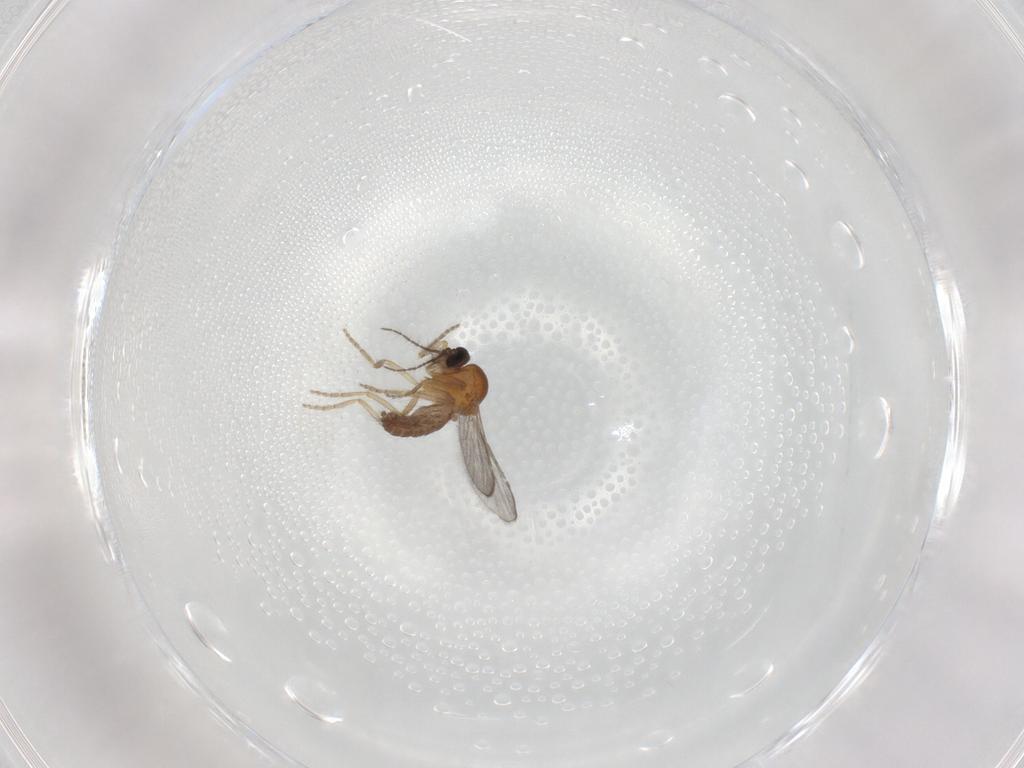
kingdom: Animalia
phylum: Arthropoda
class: Insecta
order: Diptera
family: Ceratopogonidae
